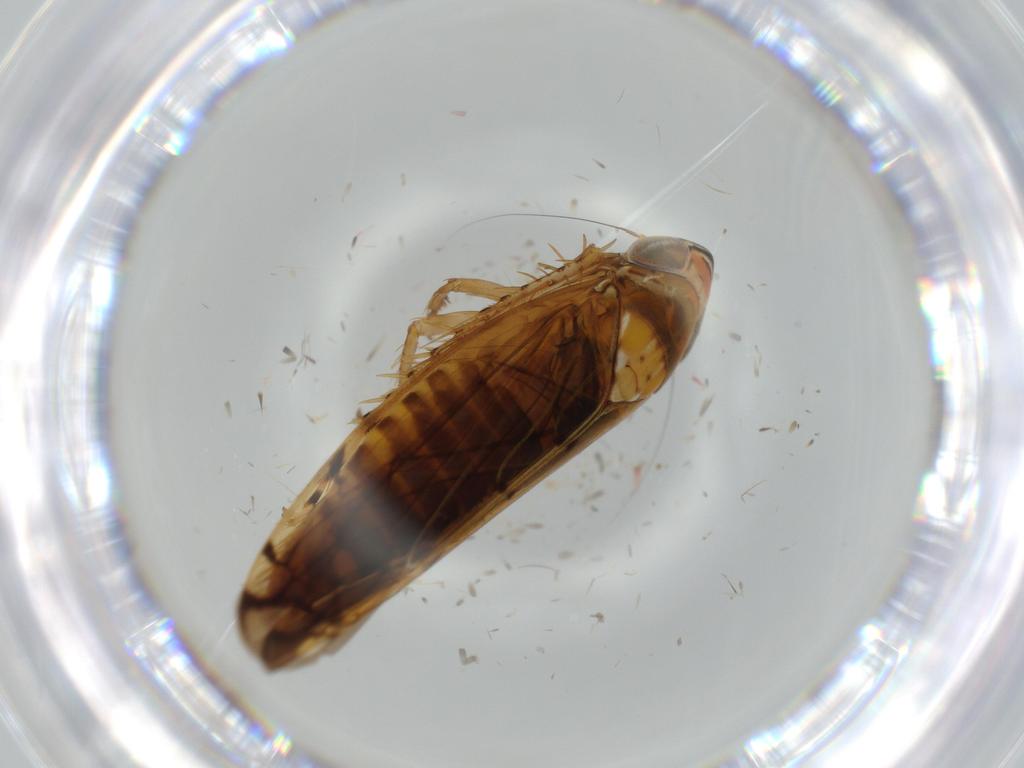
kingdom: Animalia
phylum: Arthropoda
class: Insecta
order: Hemiptera
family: Cicadellidae
